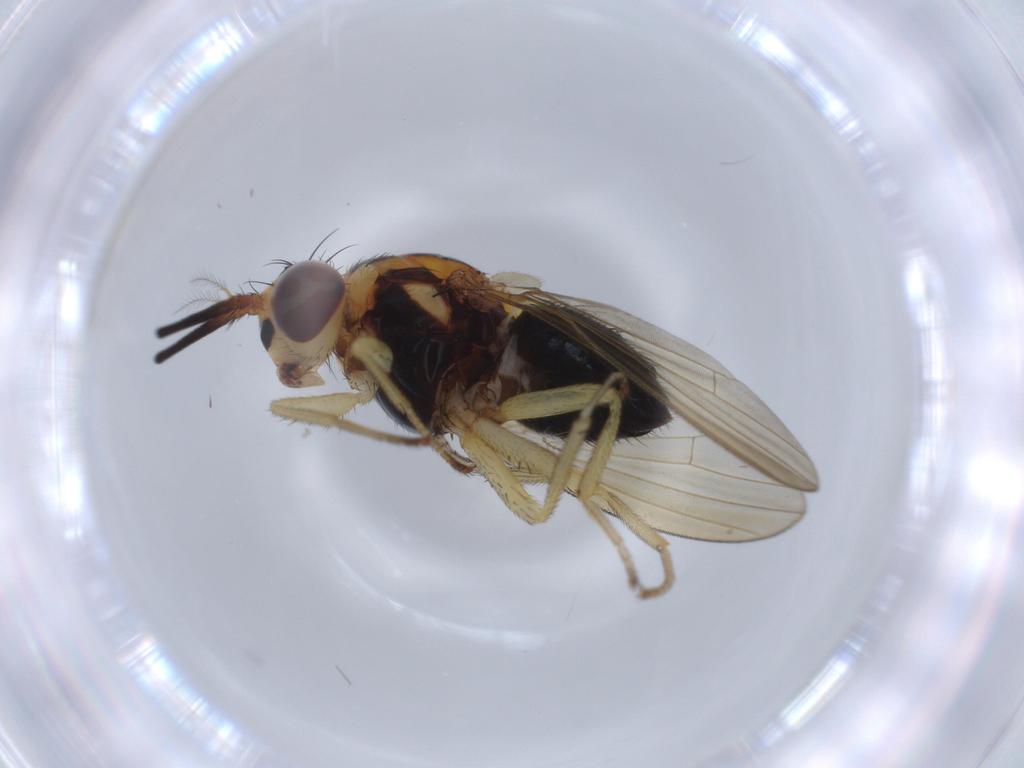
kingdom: Animalia
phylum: Arthropoda
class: Insecta
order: Diptera
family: Sciaridae
